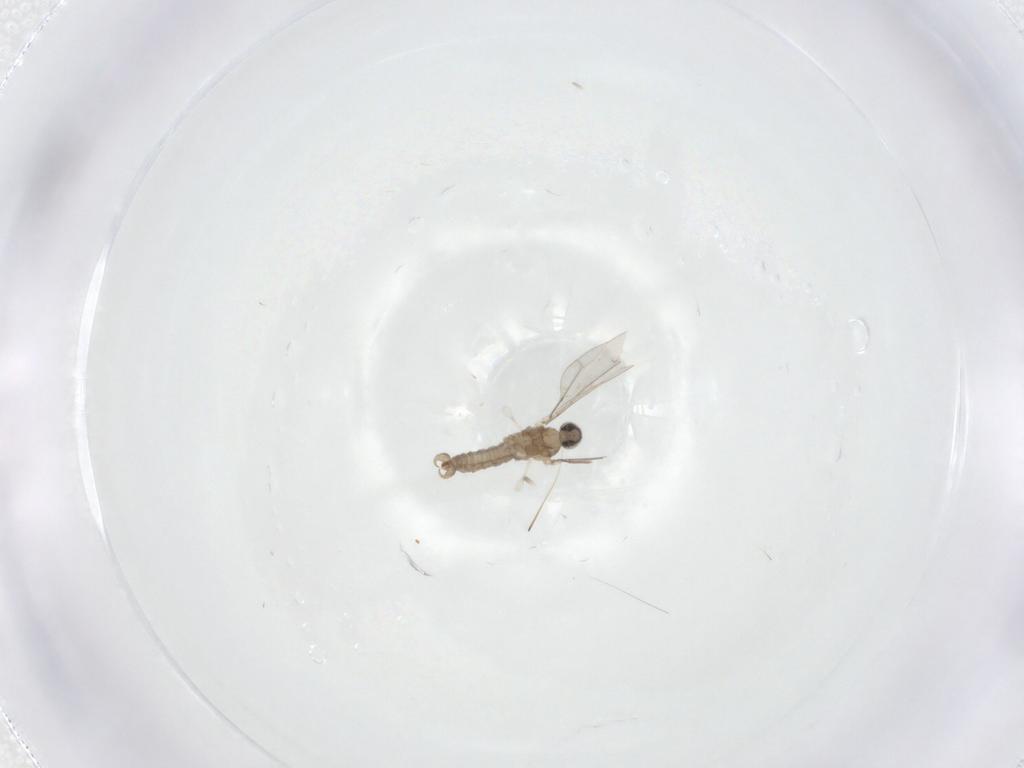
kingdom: Animalia
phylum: Arthropoda
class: Insecta
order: Diptera
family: Cecidomyiidae
